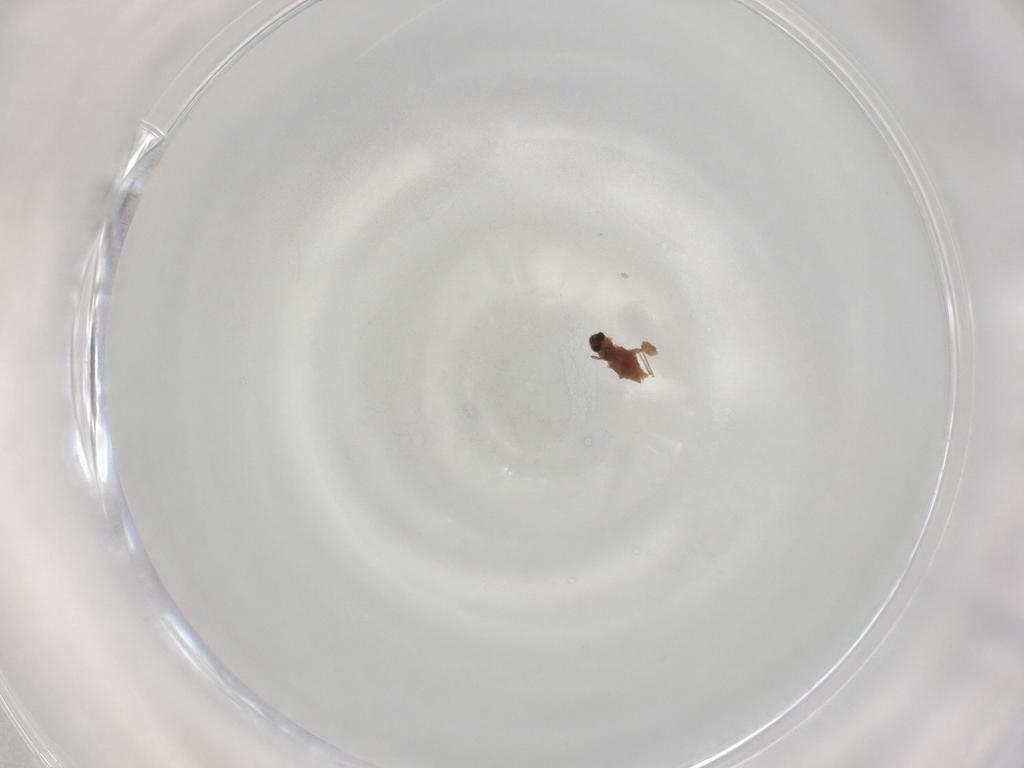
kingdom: Animalia
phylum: Arthropoda
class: Insecta
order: Diptera
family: Chironomidae
